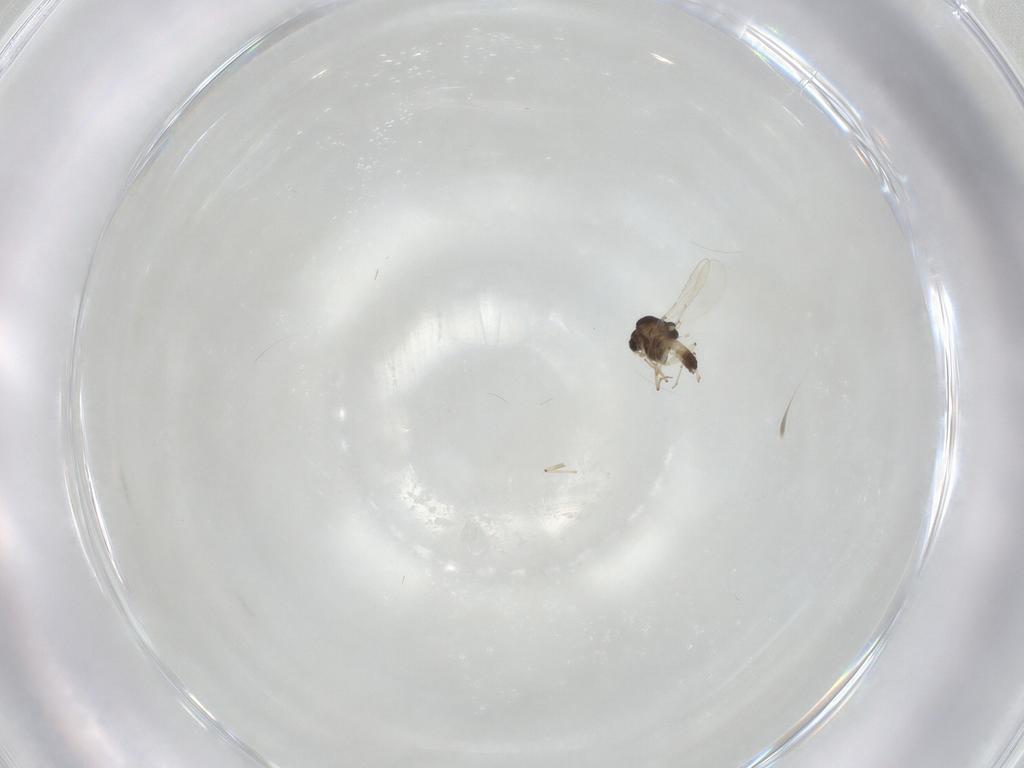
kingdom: Animalia
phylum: Arthropoda
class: Insecta
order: Diptera
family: Chironomidae
